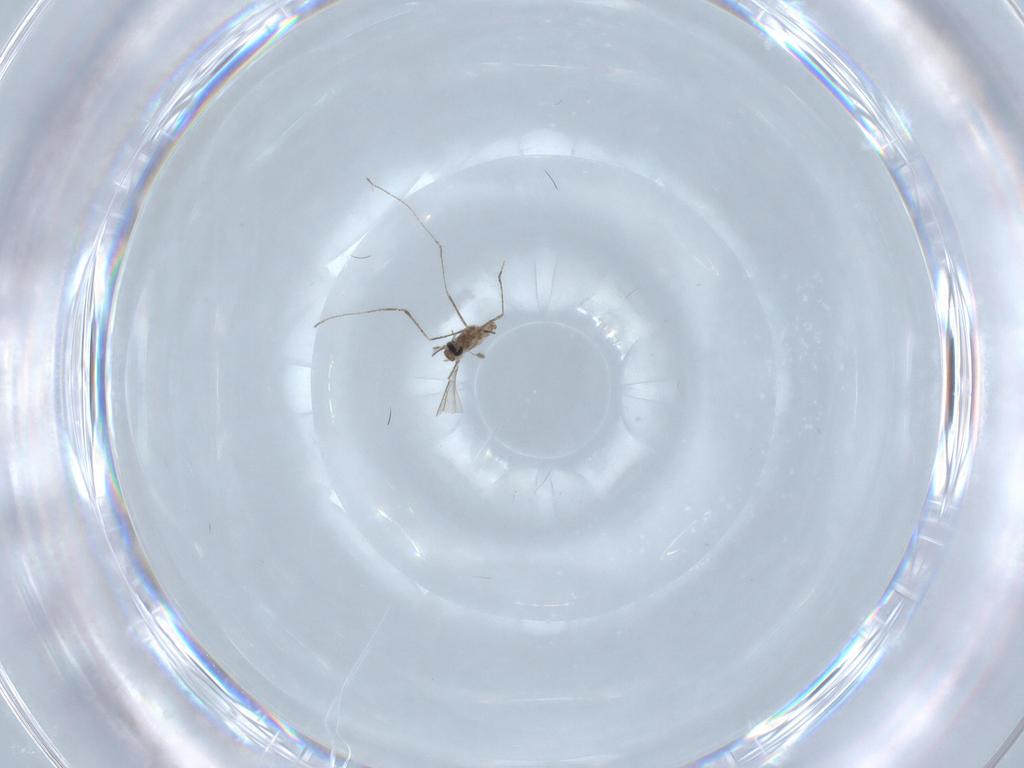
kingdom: Animalia
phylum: Arthropoda
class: Insecta
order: Diptera
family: Cecidomyiidae
